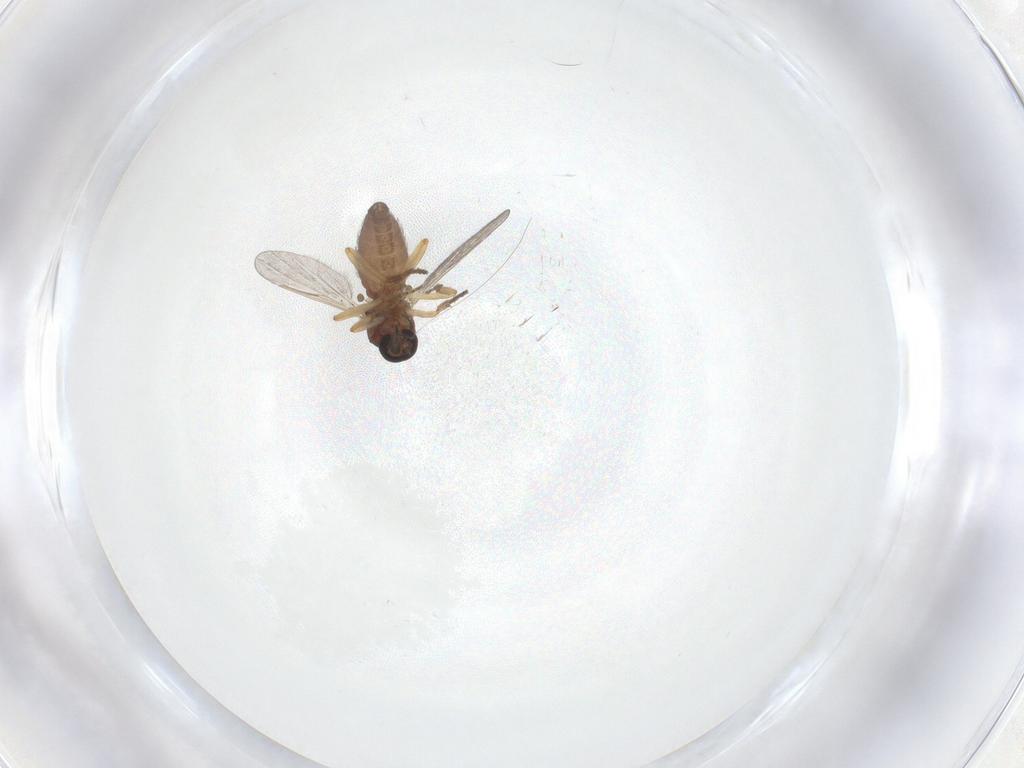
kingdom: Animalia
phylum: Arthropoda
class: Insecta
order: Diptera
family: Ceratopogonidae
